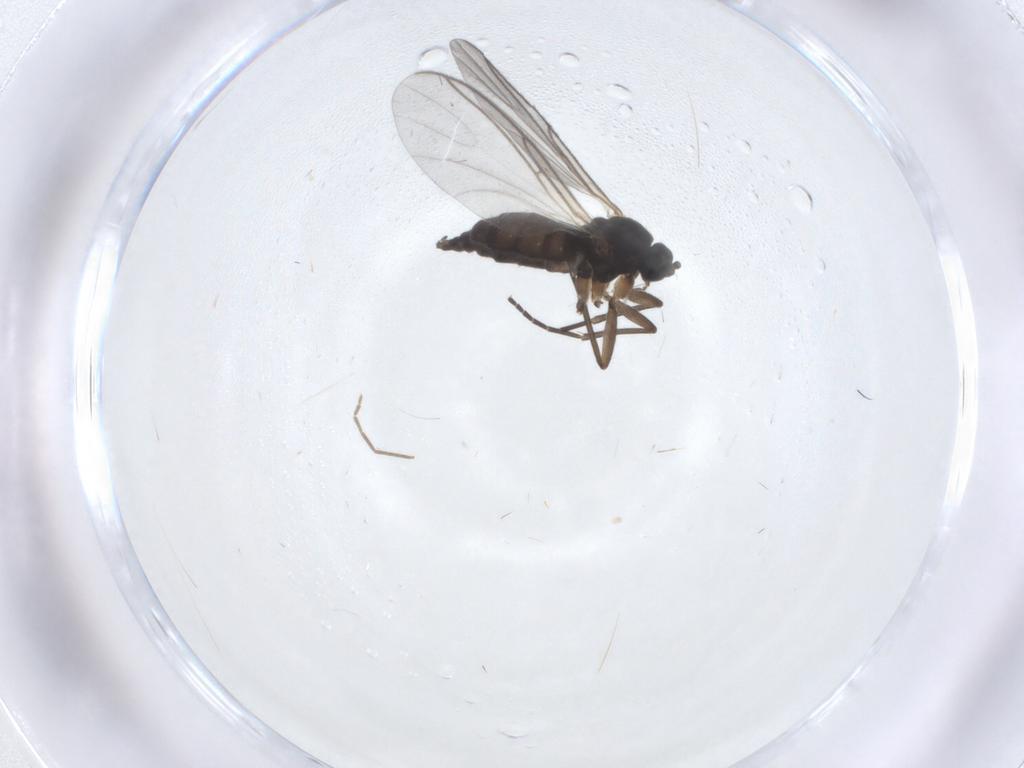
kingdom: Animalia
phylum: Arthropoda
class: Insecta
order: Diptera
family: Sciaridae
